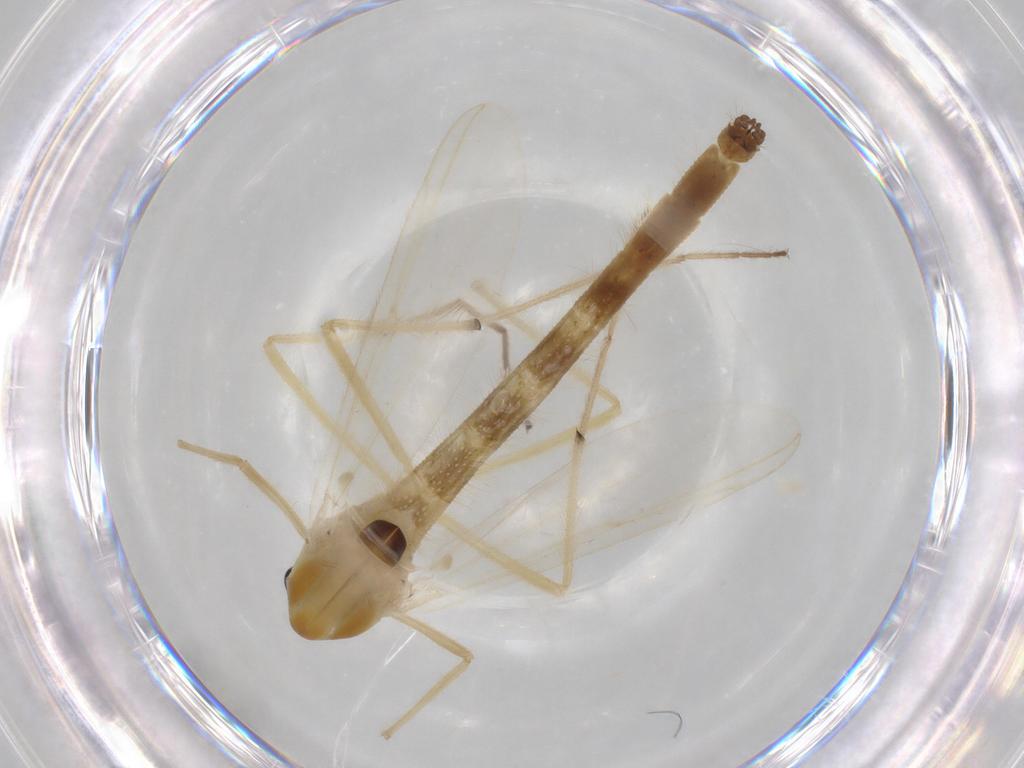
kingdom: Animalia
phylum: Arthropoda
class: Insecta
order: Diptera
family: Chironomidae
